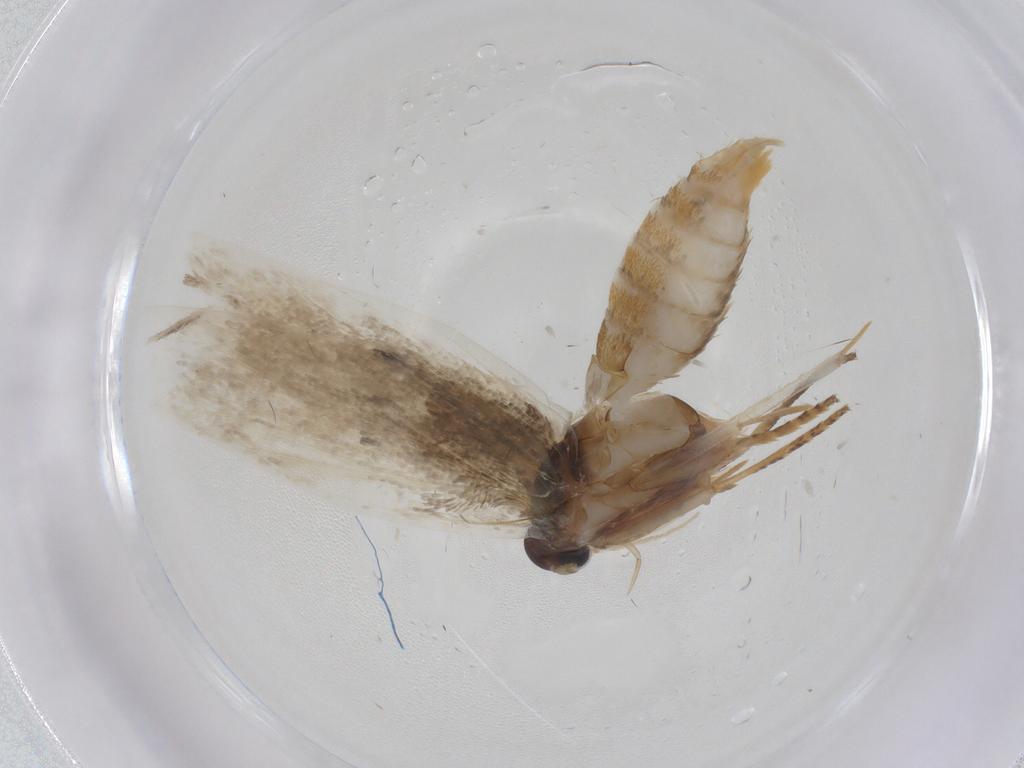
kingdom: Animalia
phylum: Arthropoda
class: Insecta
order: Lepidoptera
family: Erebidae
